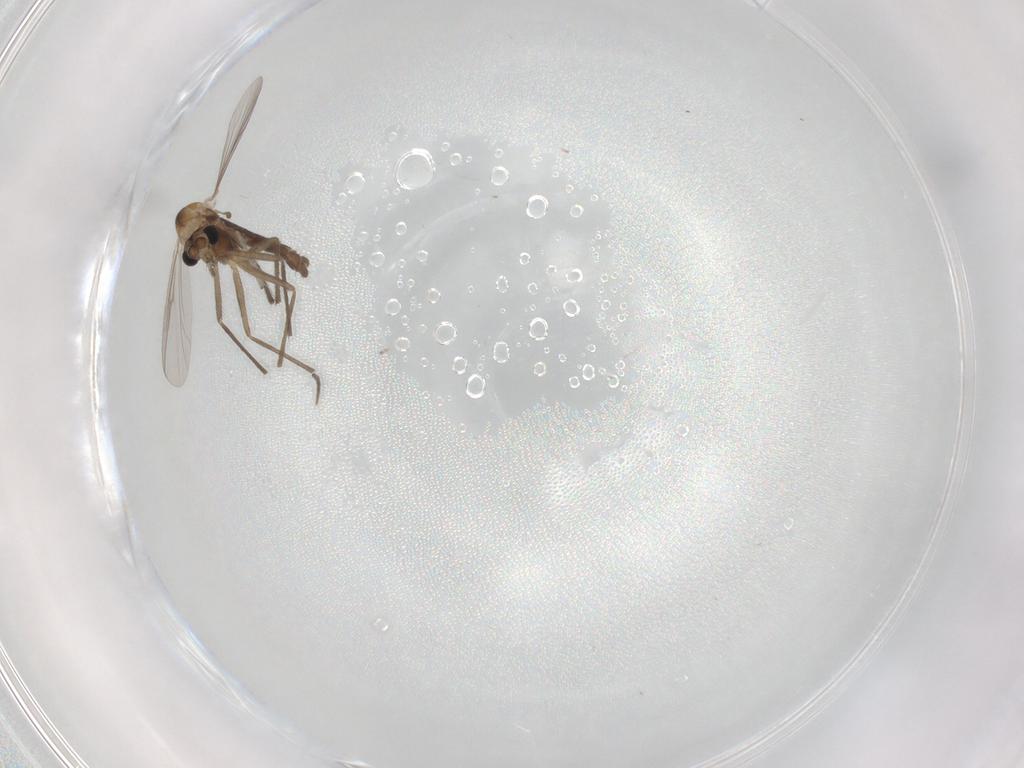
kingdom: Animalia
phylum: Arthropoda
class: Insecta
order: Diptera
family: Chironomidae
